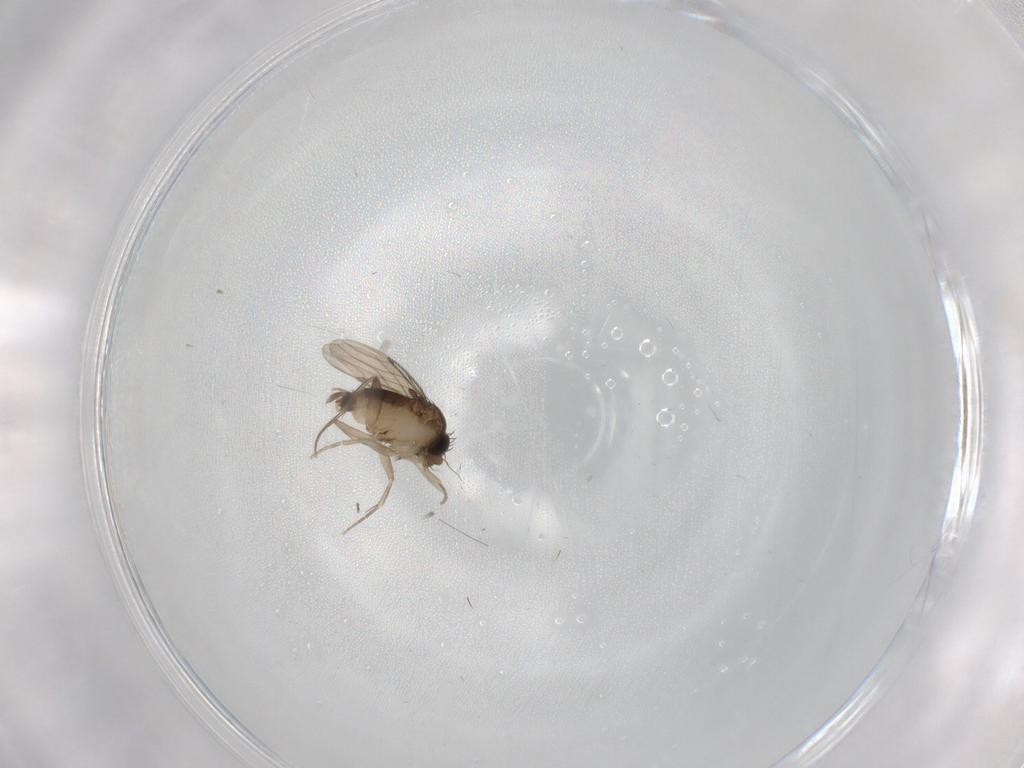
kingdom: Animalia
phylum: Arthropoda
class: Insecta
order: Diptera
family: Phoridae
